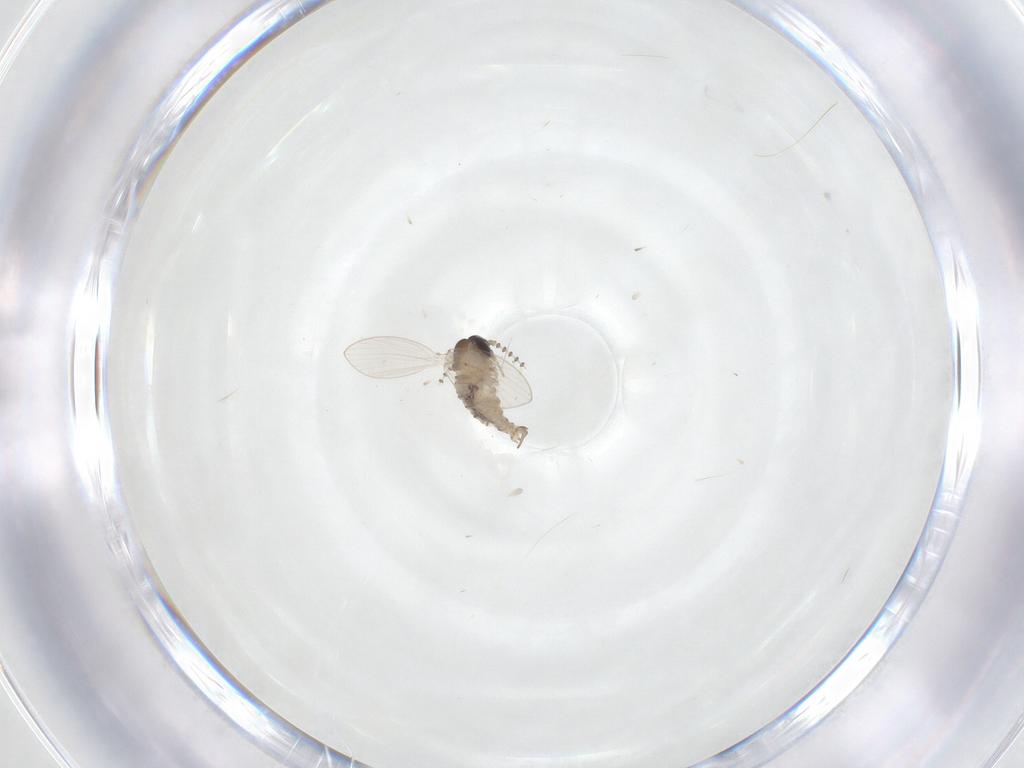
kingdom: Animalia
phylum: Arthropoda
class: Insecta
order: Diptera
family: Psychodidae
